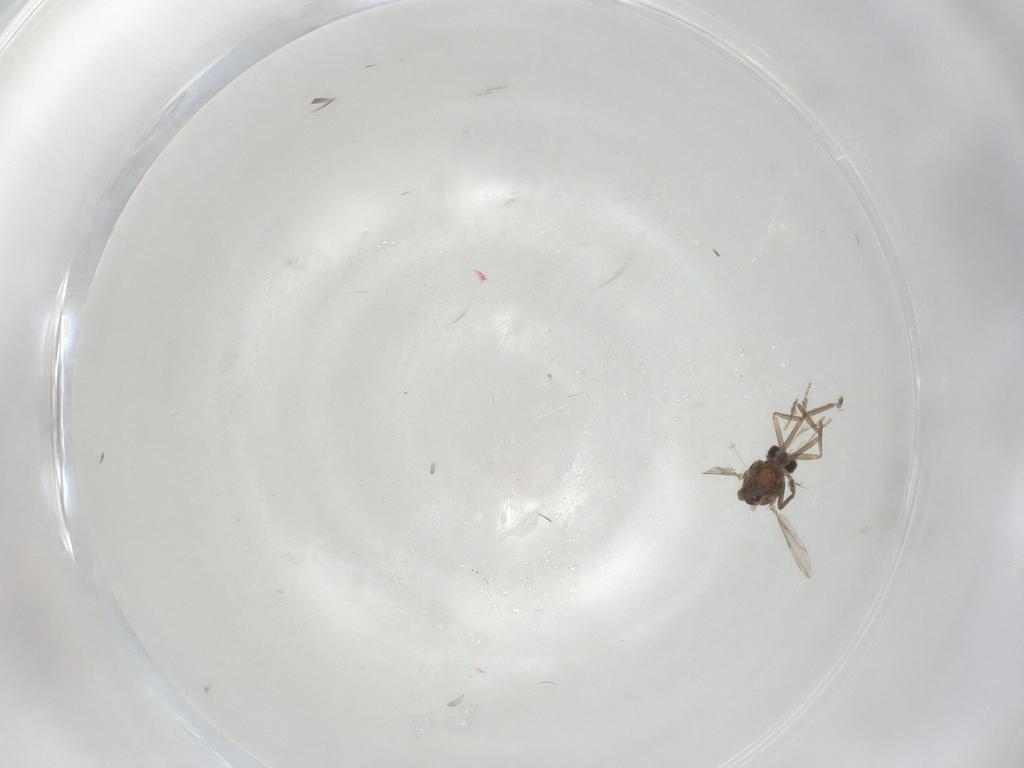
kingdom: Animalia
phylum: Arthropoda
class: Insecta
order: Diptera
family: Ceratopogonidae
